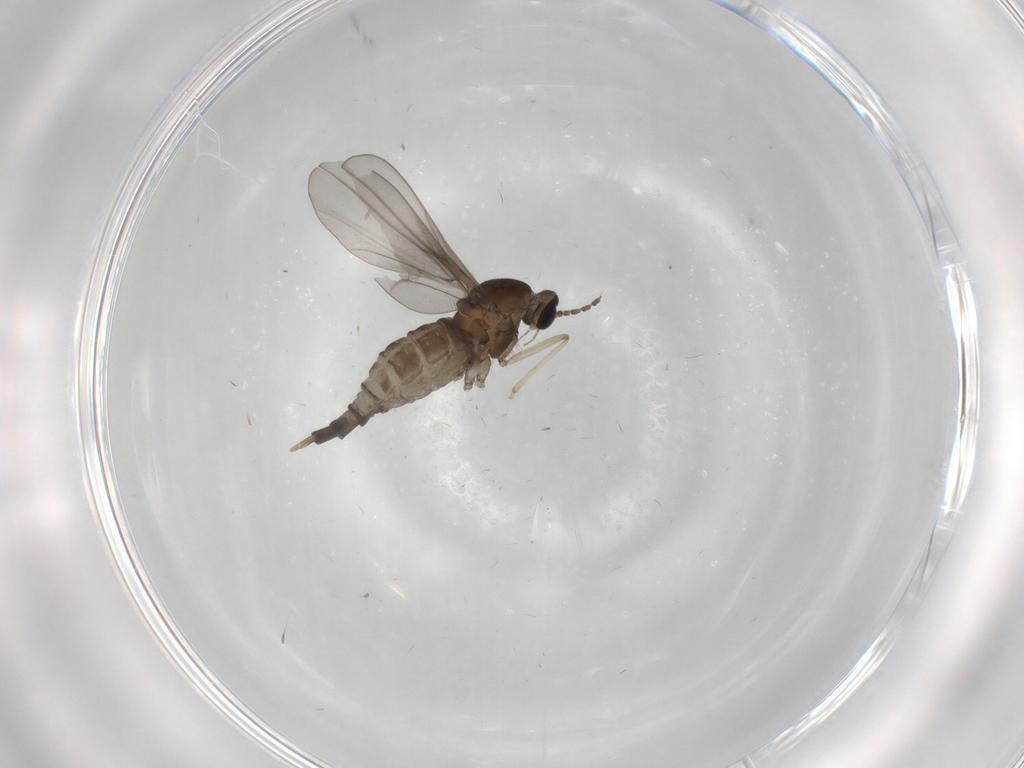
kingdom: Animalia
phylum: Arthropoda
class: Insecta
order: Diptera
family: Cecidomyiidae
